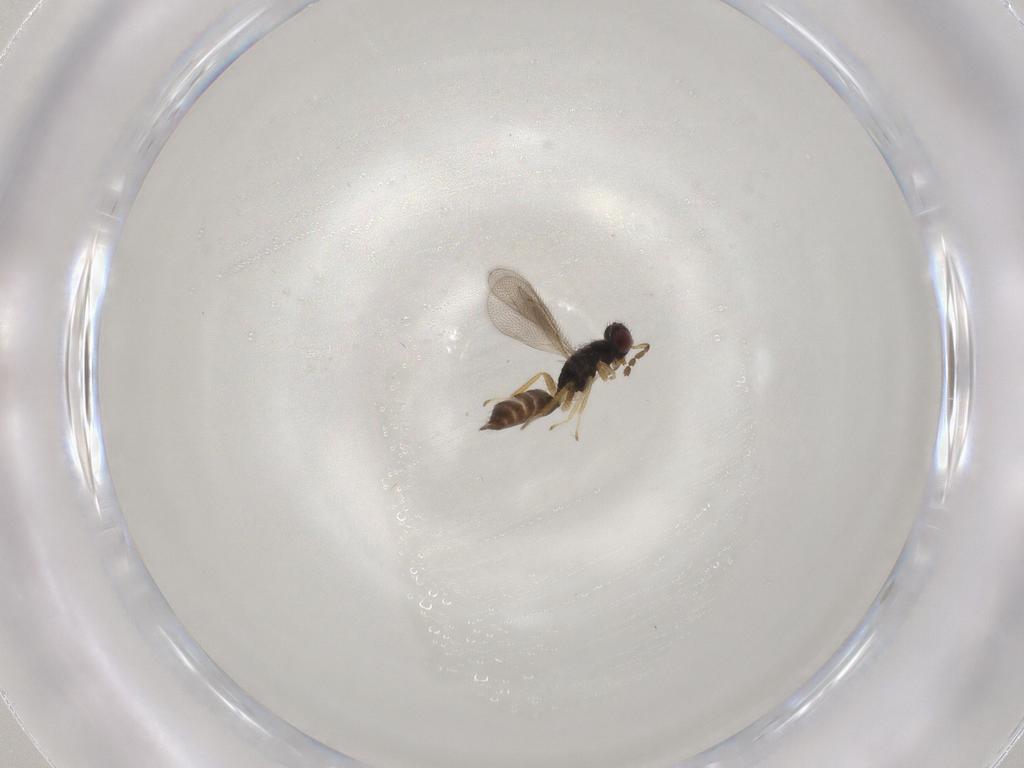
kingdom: Animalia
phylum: Arthropoda
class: Insecta
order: Hymenoptera
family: Eulophidae
